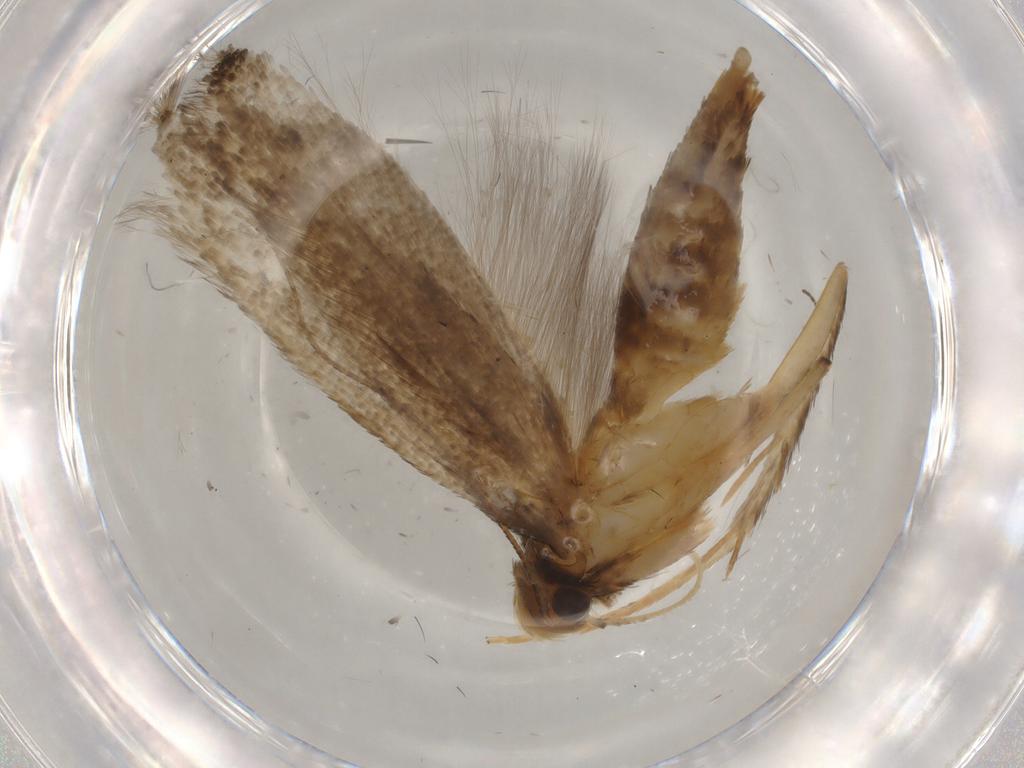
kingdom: Animalia
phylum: Arthropoda
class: Insecta
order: Lepidoptera
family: Gelechiidae
